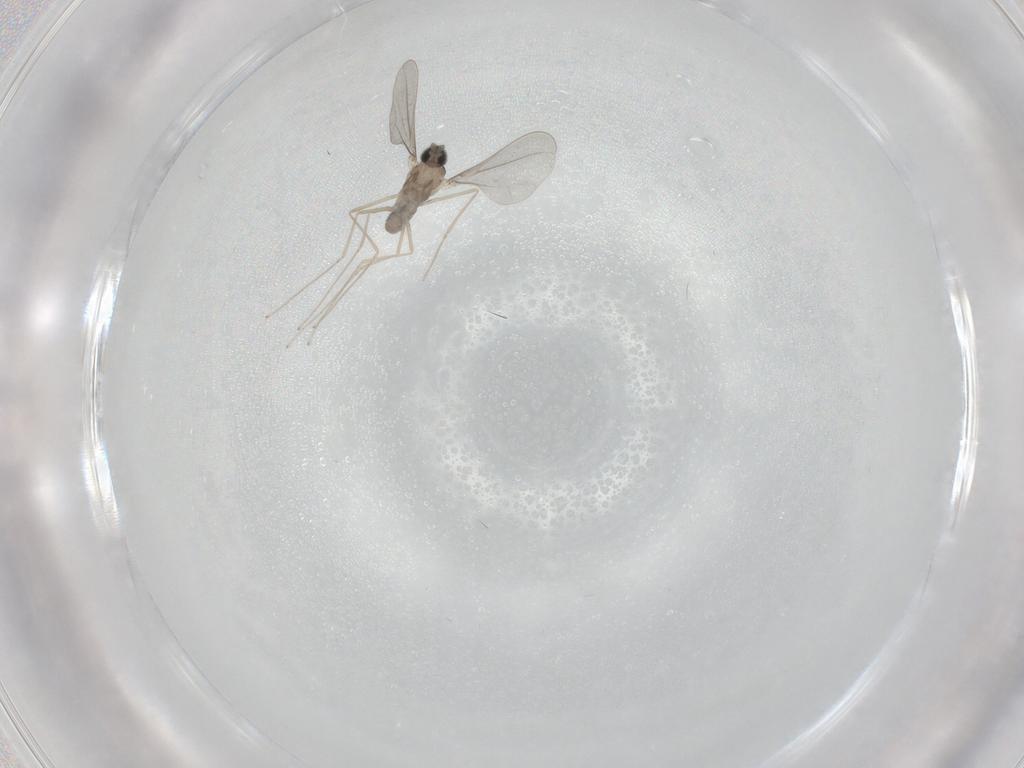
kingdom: Animalia
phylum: Arthropoda
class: Insecta
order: Diptera
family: Cecidomyiidae
